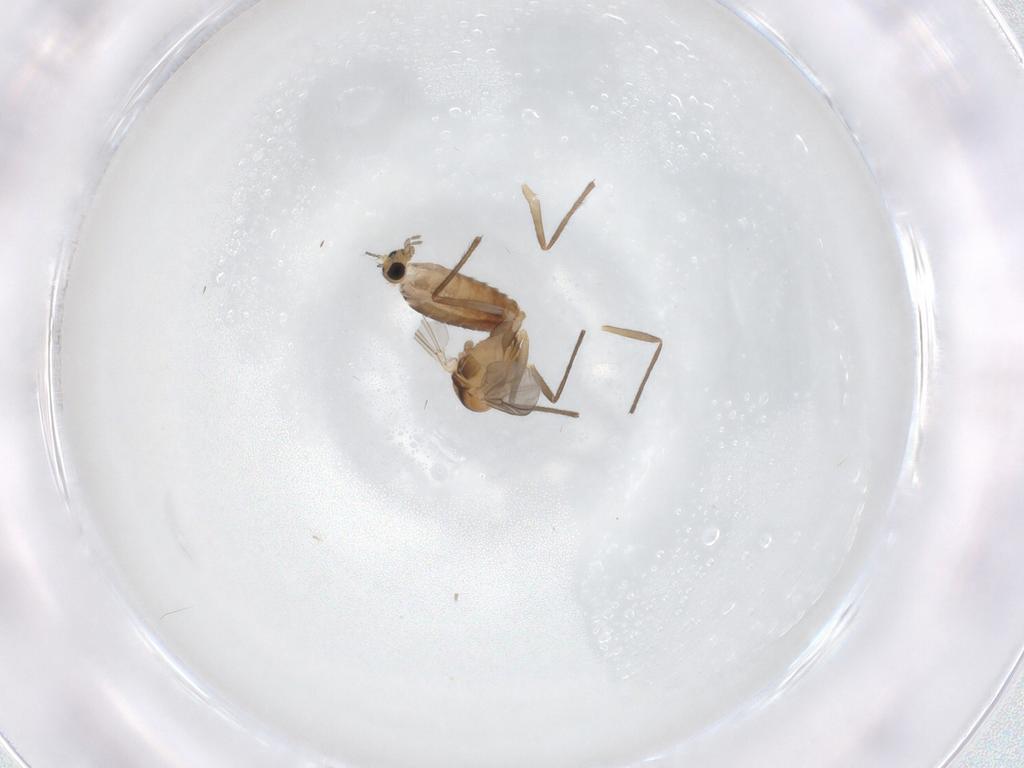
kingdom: Animalia
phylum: Arthropoda
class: Insecta
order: Diptera
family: Chironomidae
